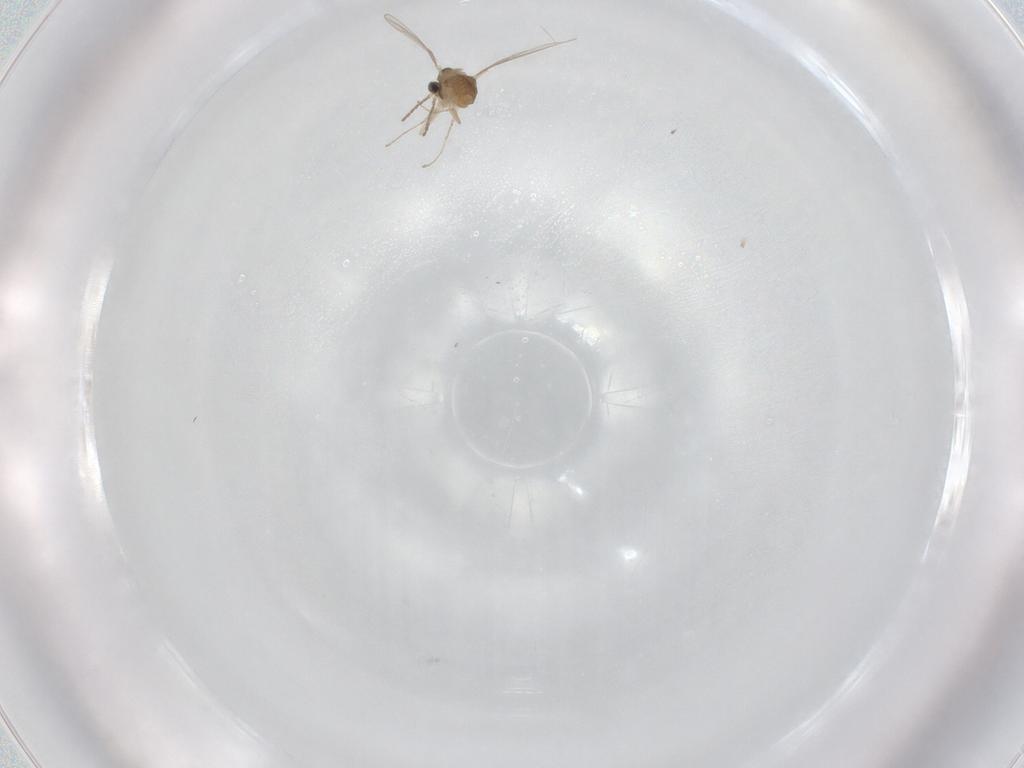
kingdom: Animalia
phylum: Arthropoda
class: Insecta
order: Diptera
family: Cecidomyiidae
